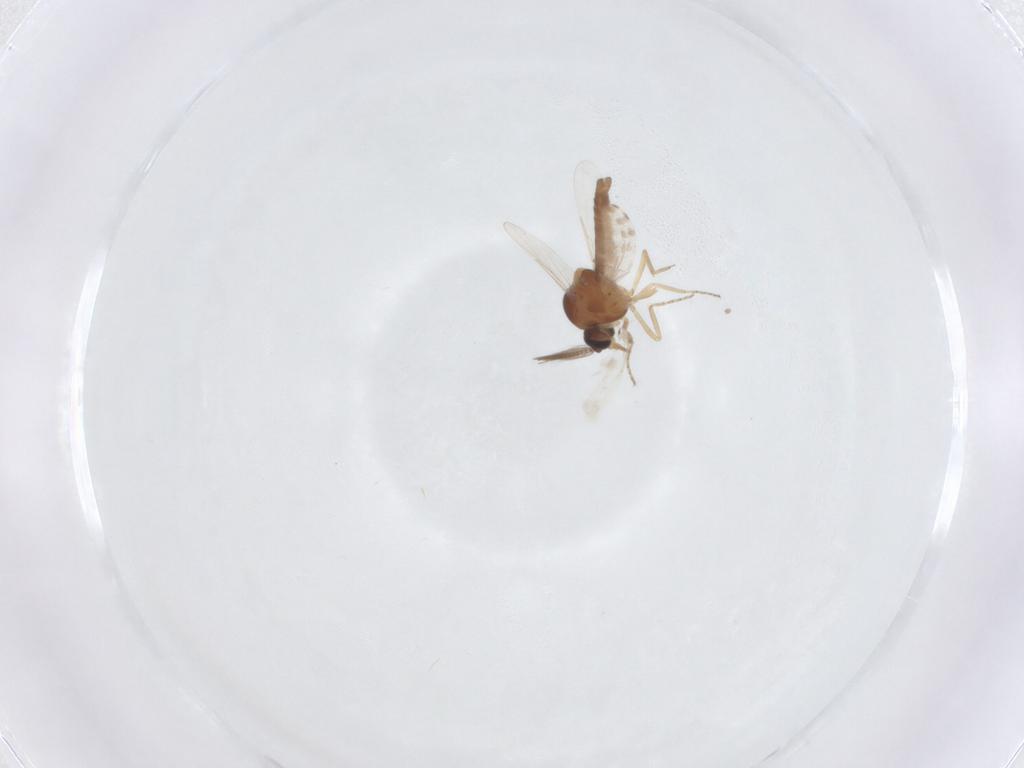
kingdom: Animalia
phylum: Arthropoda
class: Insecta
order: Diptera
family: Ceratopogonidae
